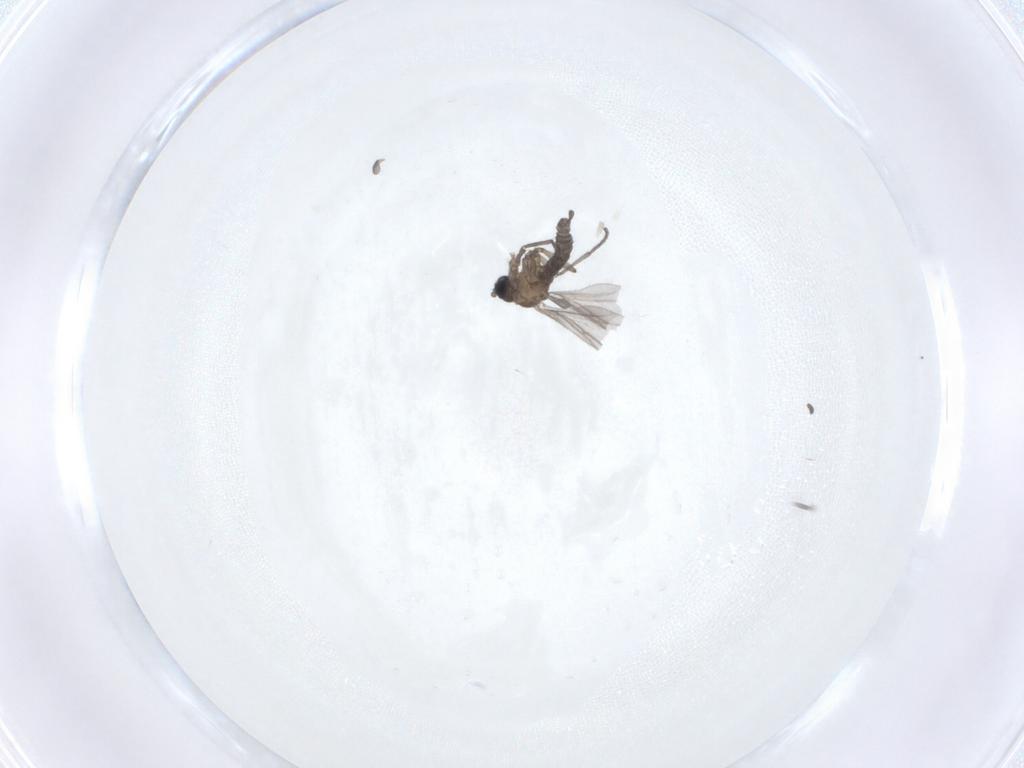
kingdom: Animalia
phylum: Arthropoda
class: Insecta
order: Diptera
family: Sciaridae
